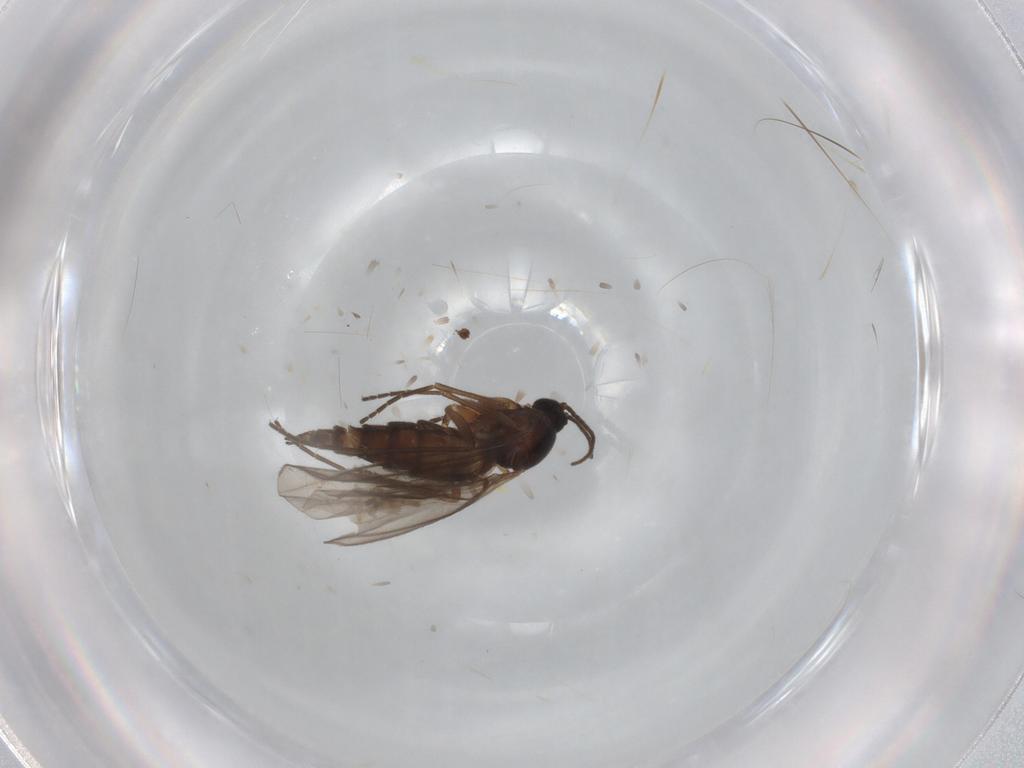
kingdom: Animalia
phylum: Arthropoda
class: Insecta
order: Diptera
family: Sciaridae
